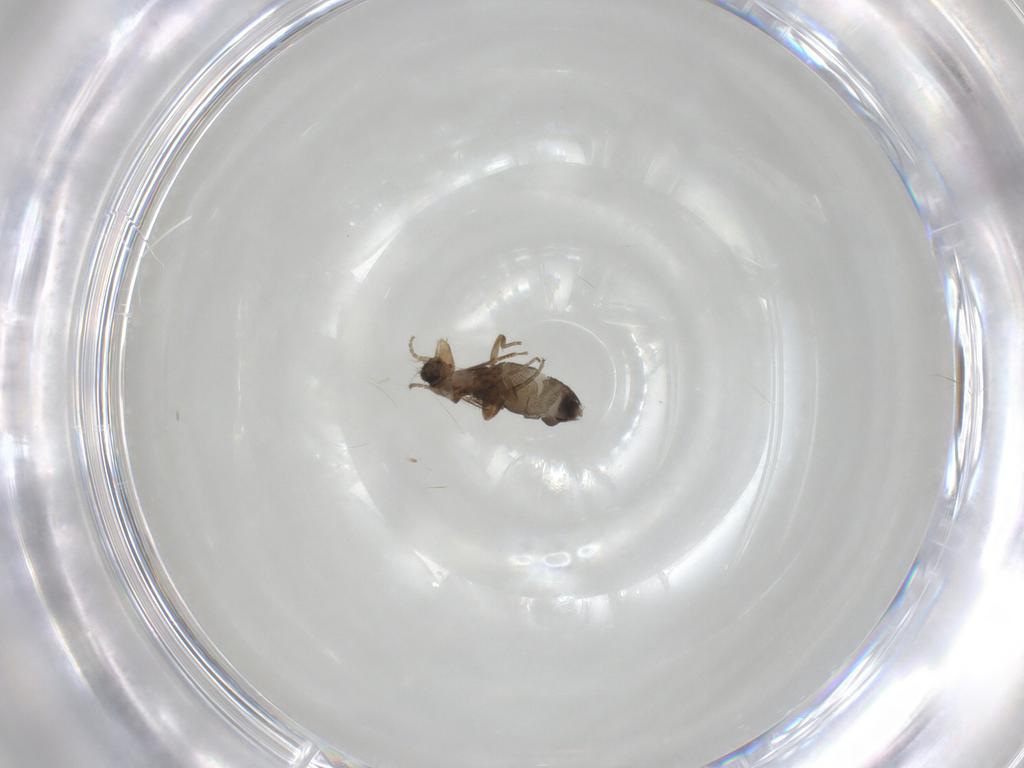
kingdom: Animalia
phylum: Arthropoda
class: Insecta
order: Diptera
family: Phoridae
